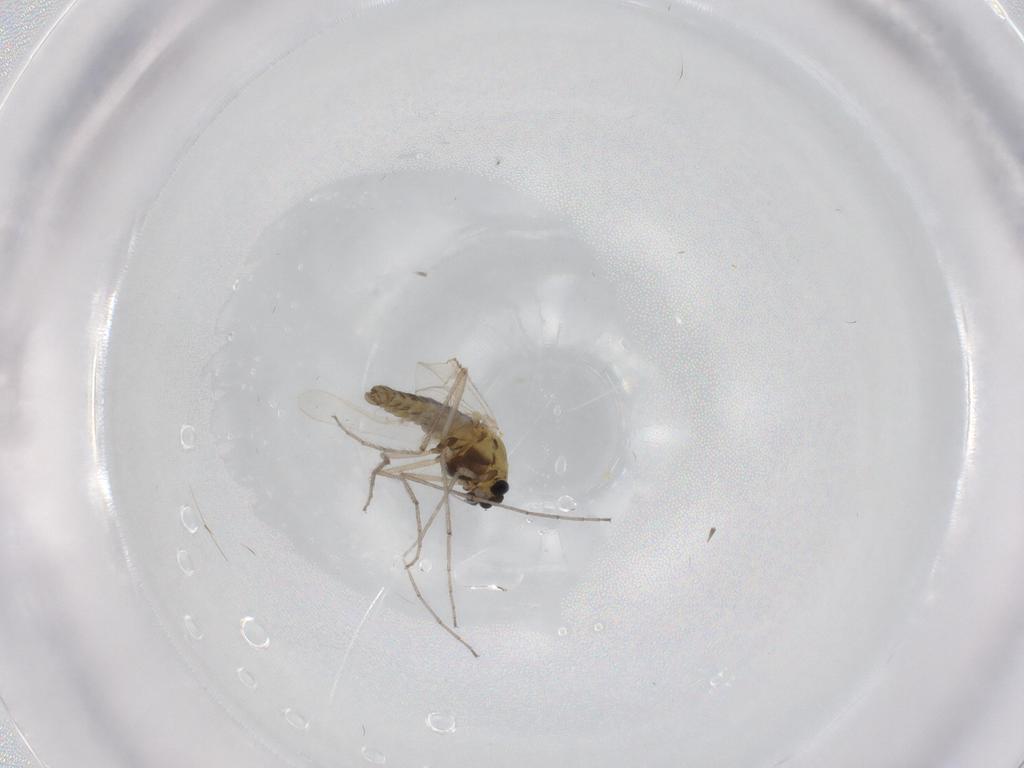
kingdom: Animalia
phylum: Arthropoda
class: Insecta
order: Diptera
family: Chironomidae
